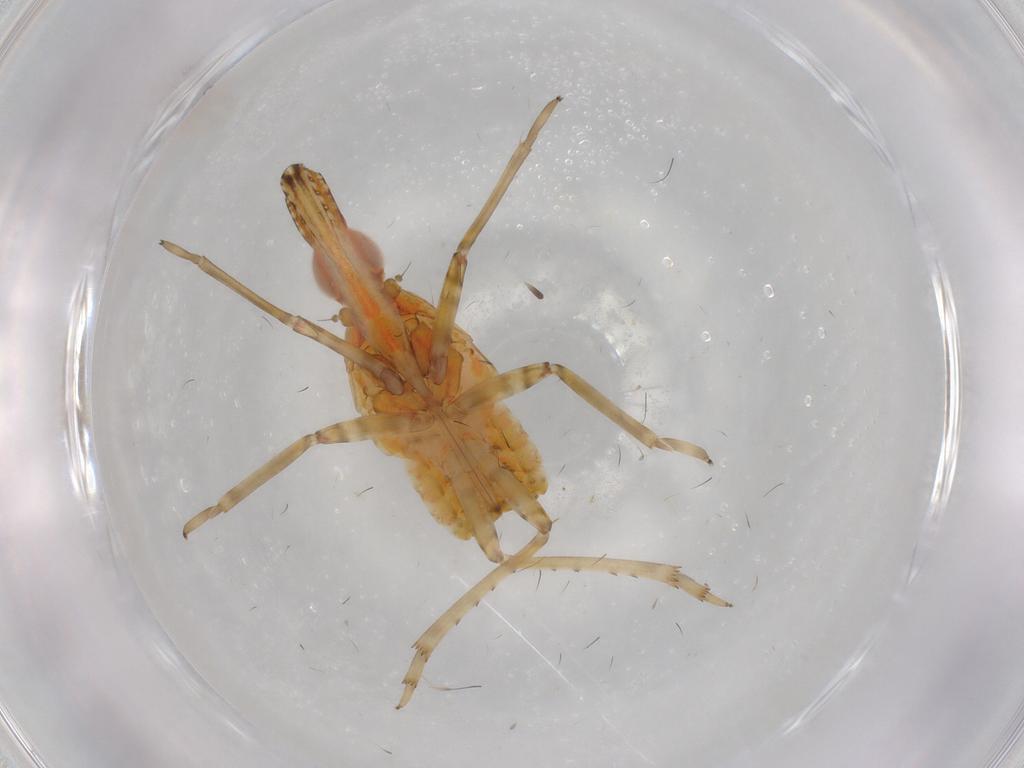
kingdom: Animalia
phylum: Arthropoda
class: Insecta
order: Hemiptera
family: Fulgoroidea_incertae_sedis
